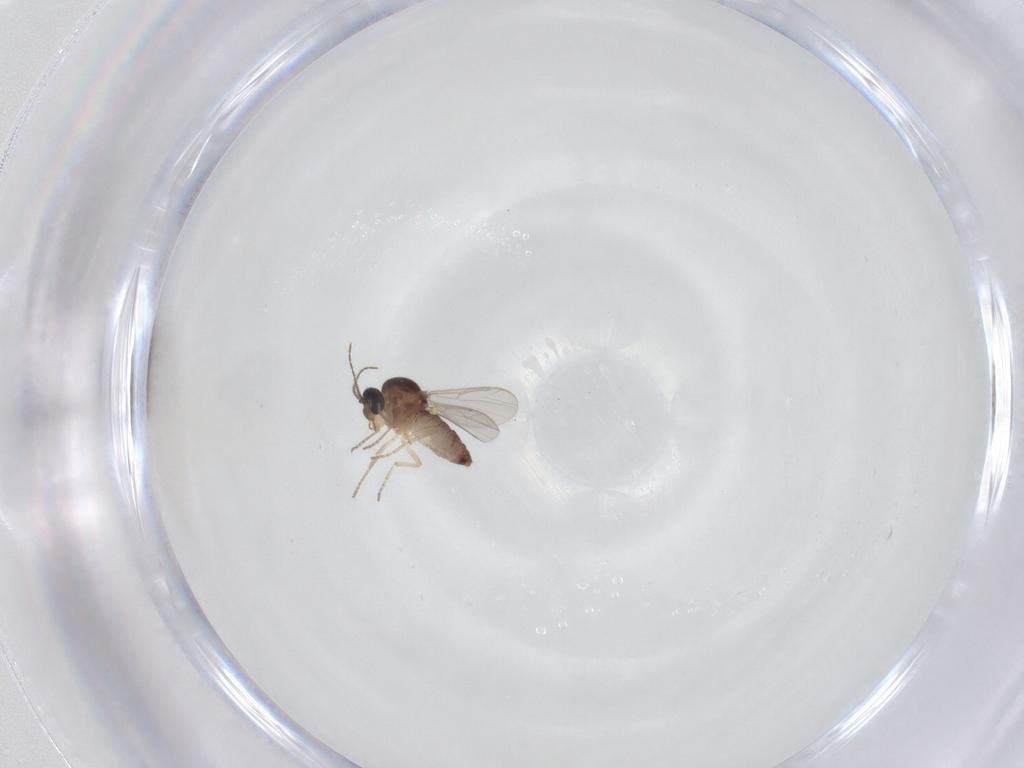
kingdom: Animalia
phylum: Arthropoda
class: Insecta
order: Diptera
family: Ceratopogonidae
